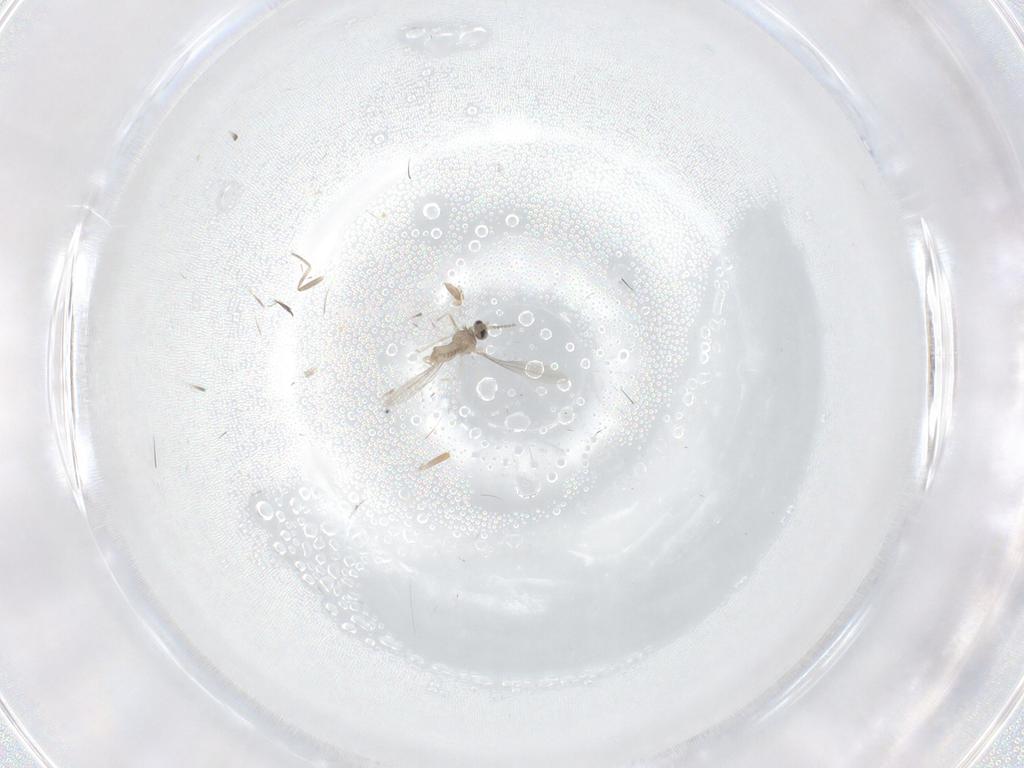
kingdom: Animalia
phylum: Arthropoda
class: Insecta
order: Diptera
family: Cecidomyiidae
